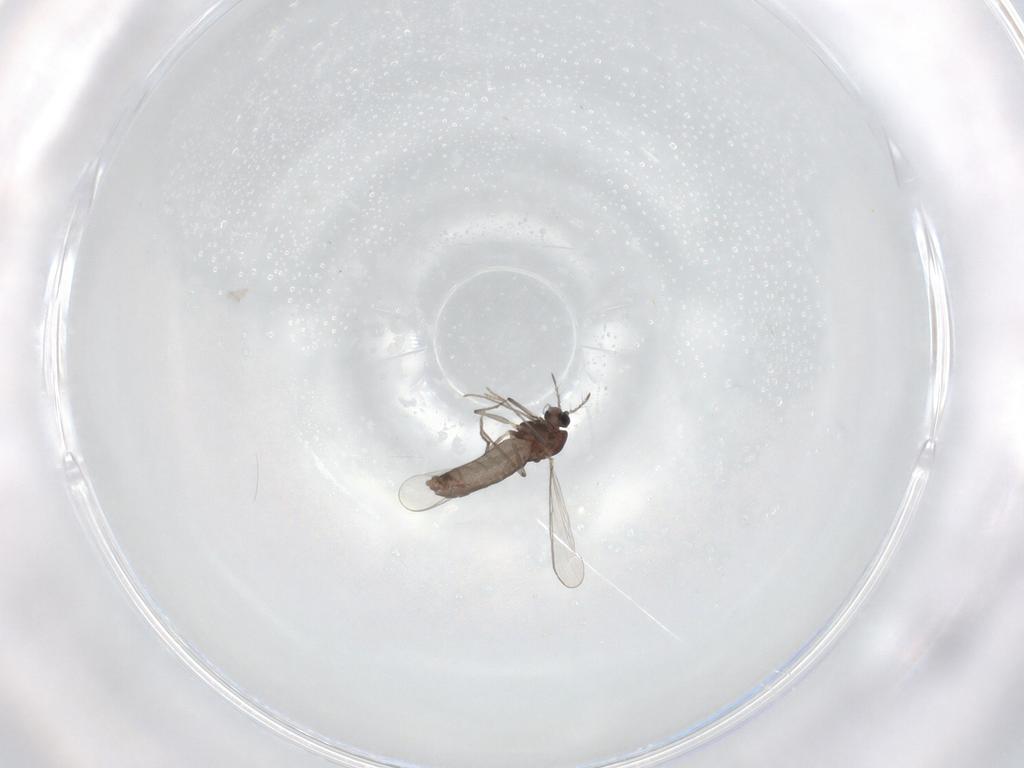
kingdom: Animalia
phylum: Arthropoda
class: Insecta
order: Diptera
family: Chironomidae
